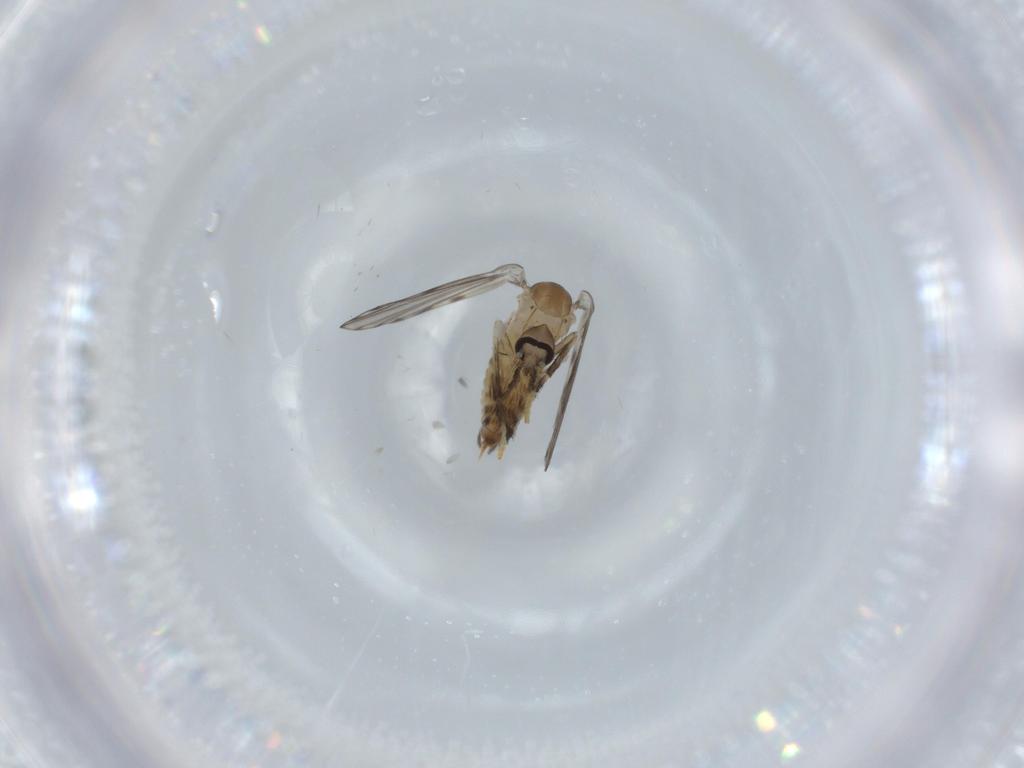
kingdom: Animalia
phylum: Arthropoda
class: Insecta
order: Diptera
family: Psychodidae
